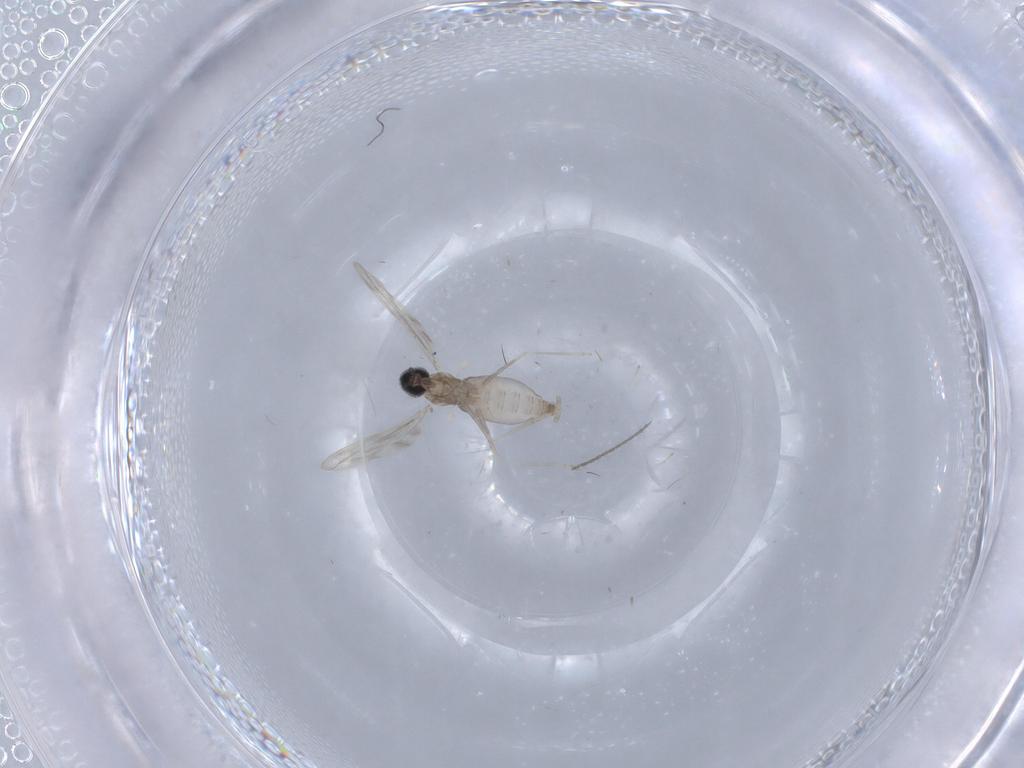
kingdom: Animalia
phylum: Arthropoda
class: Insecta
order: Diptera
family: Cecidomyiidae
